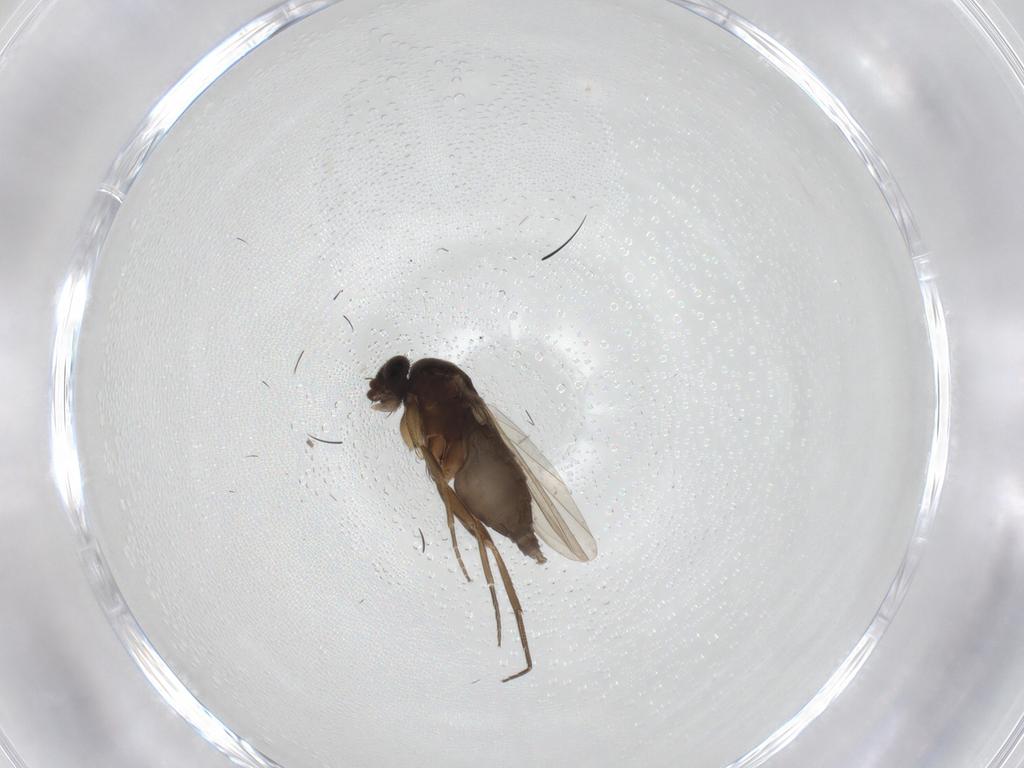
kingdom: Animalia
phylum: Arthropoda
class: Insecta
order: Diptera
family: Phoridae
